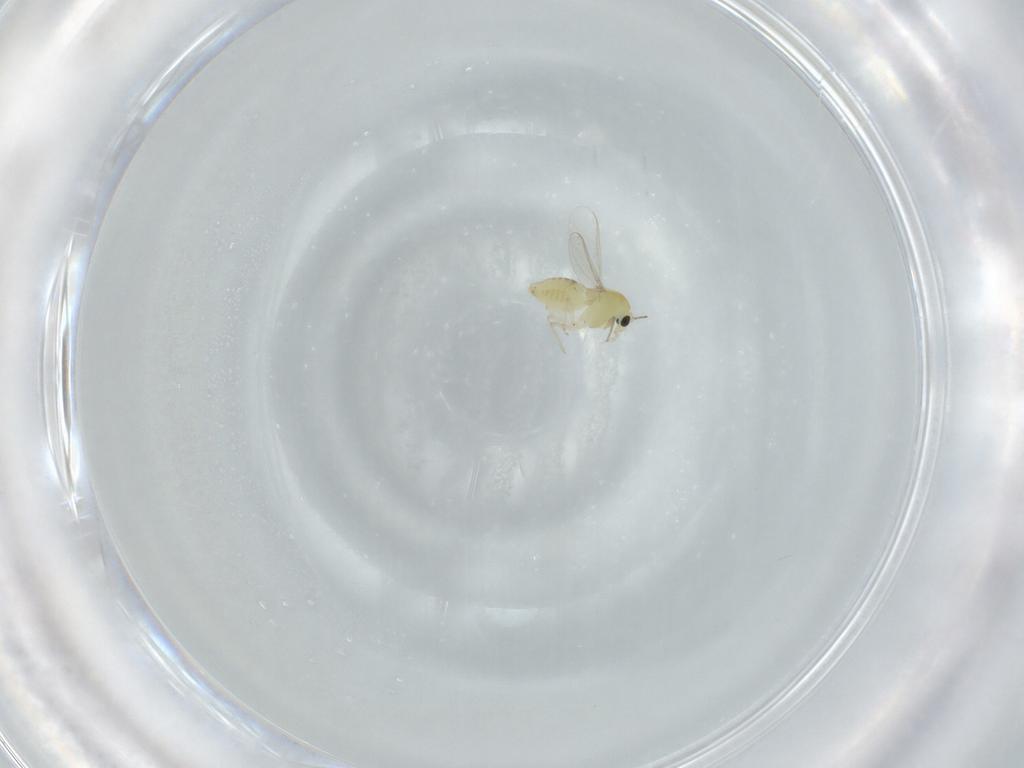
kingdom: Animalia
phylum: Arthropoda
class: Insecta
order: Diptera
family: Chironomidae
